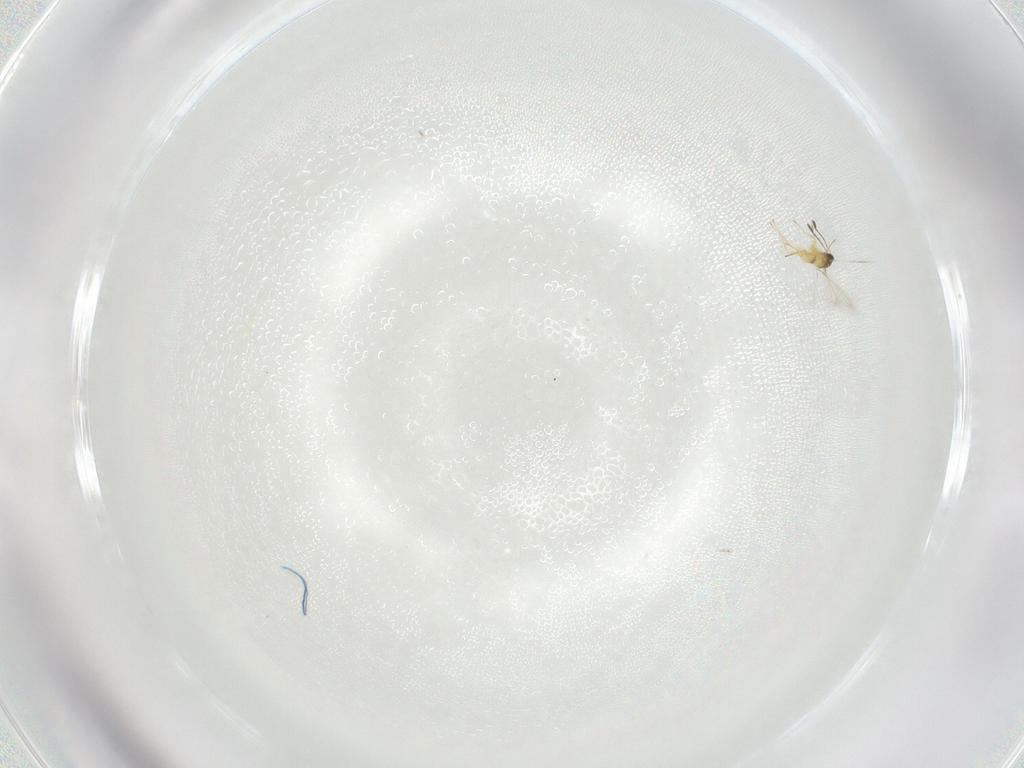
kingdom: Animalia
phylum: Arthropoda
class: Insecta
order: Hymenoptera
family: Mymaridae
